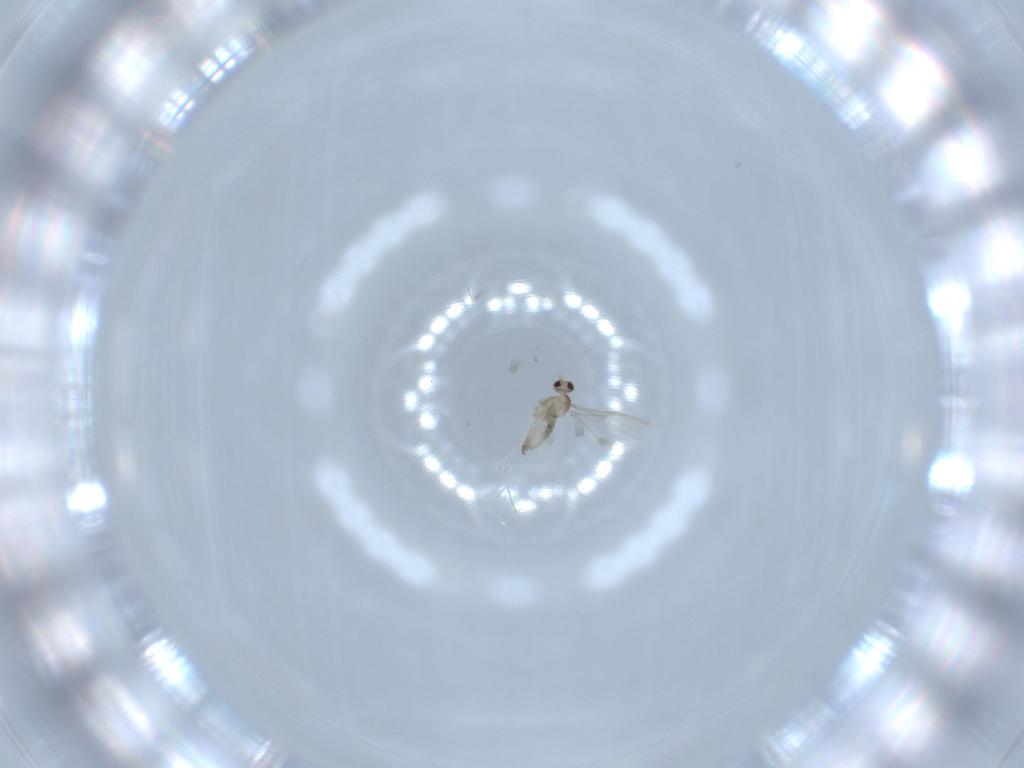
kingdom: Animalia
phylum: Arthropoda
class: Insecta
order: Diptera
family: Cecidomyiidae
